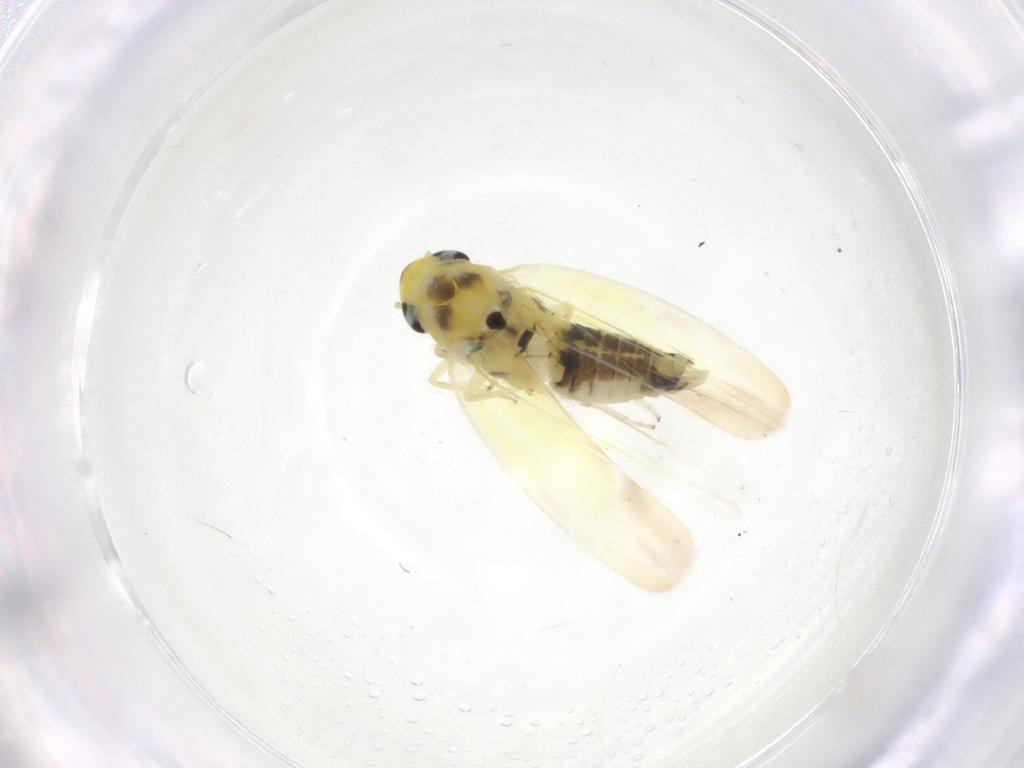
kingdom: Animalia
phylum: Arthropoda
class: Insecta
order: Hemiptera
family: Cicadellidae
